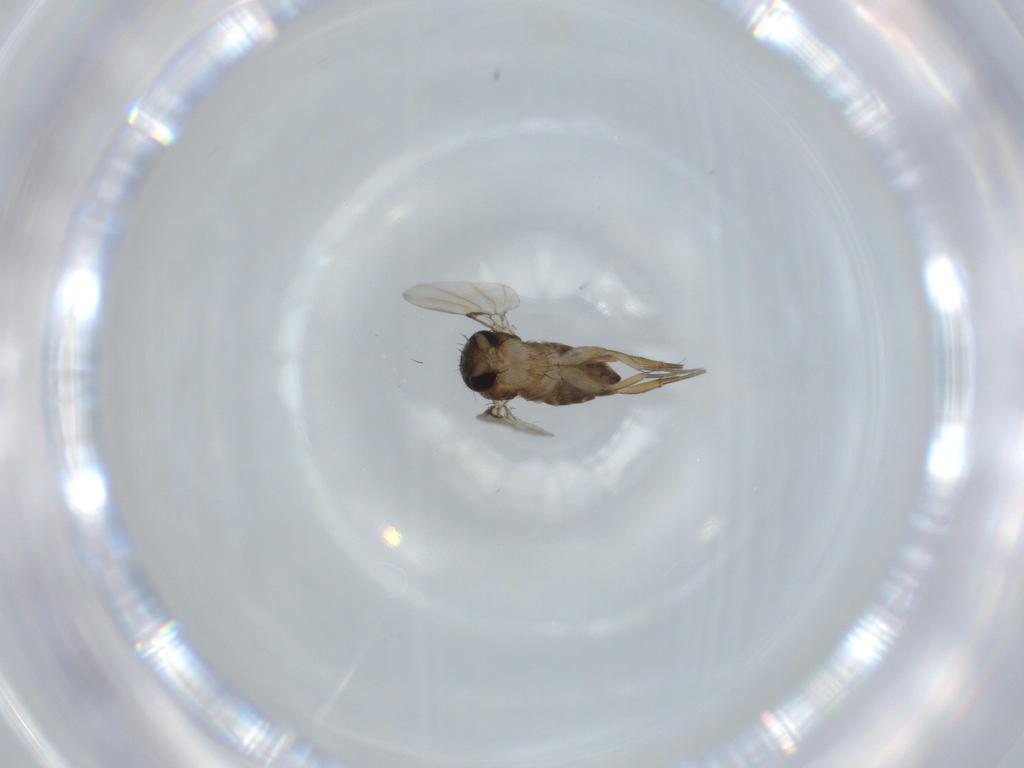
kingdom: Animalia
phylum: Arthropoda
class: Insecta
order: Diptera
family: Phoridae
